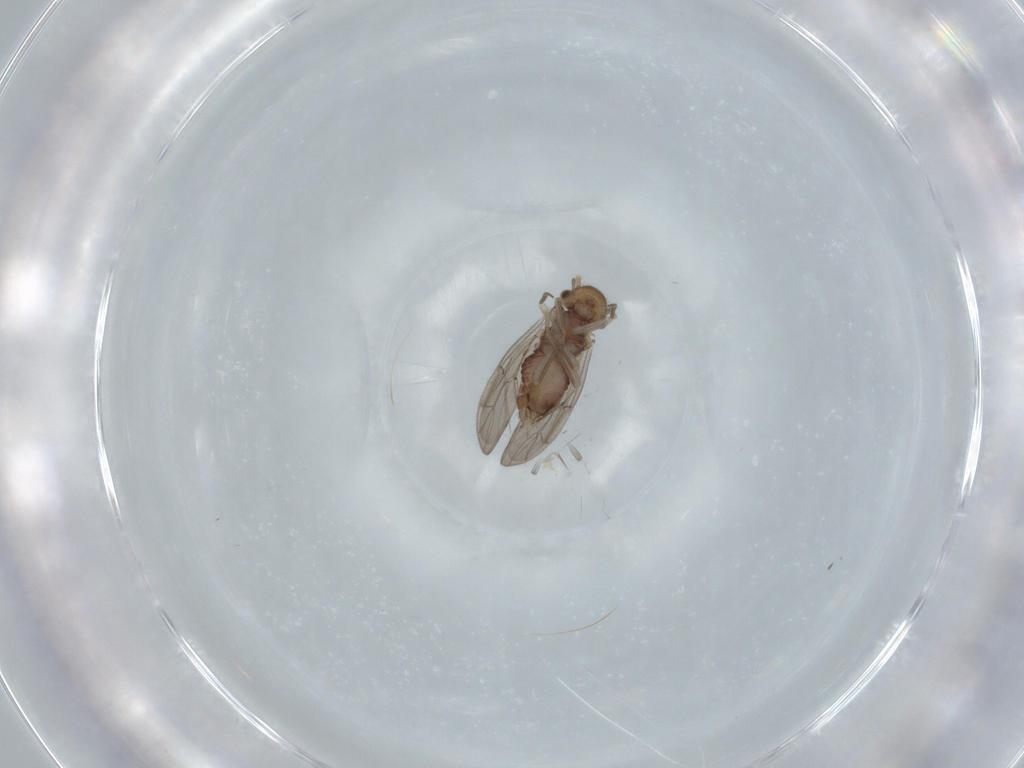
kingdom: Animalia
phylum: Arthropoda
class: Insecta
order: Psocodea
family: Ectopsocidae
